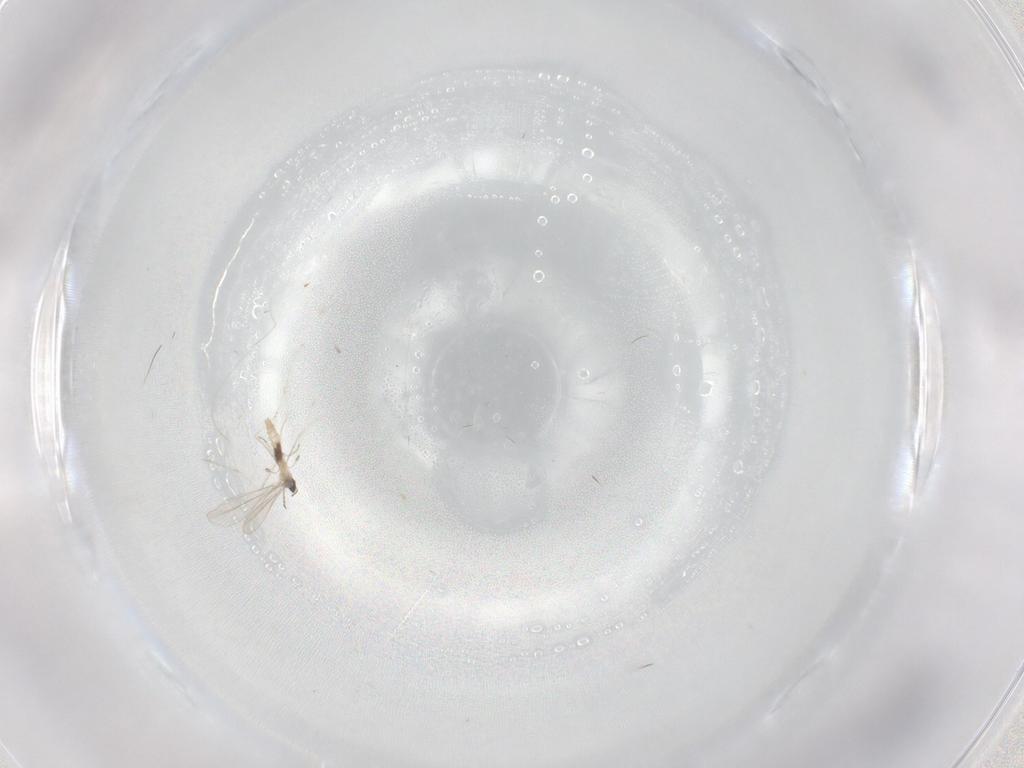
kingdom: Animalia
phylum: Arthropoda
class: Insecta
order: Diptera
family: Cecidomyiidae
